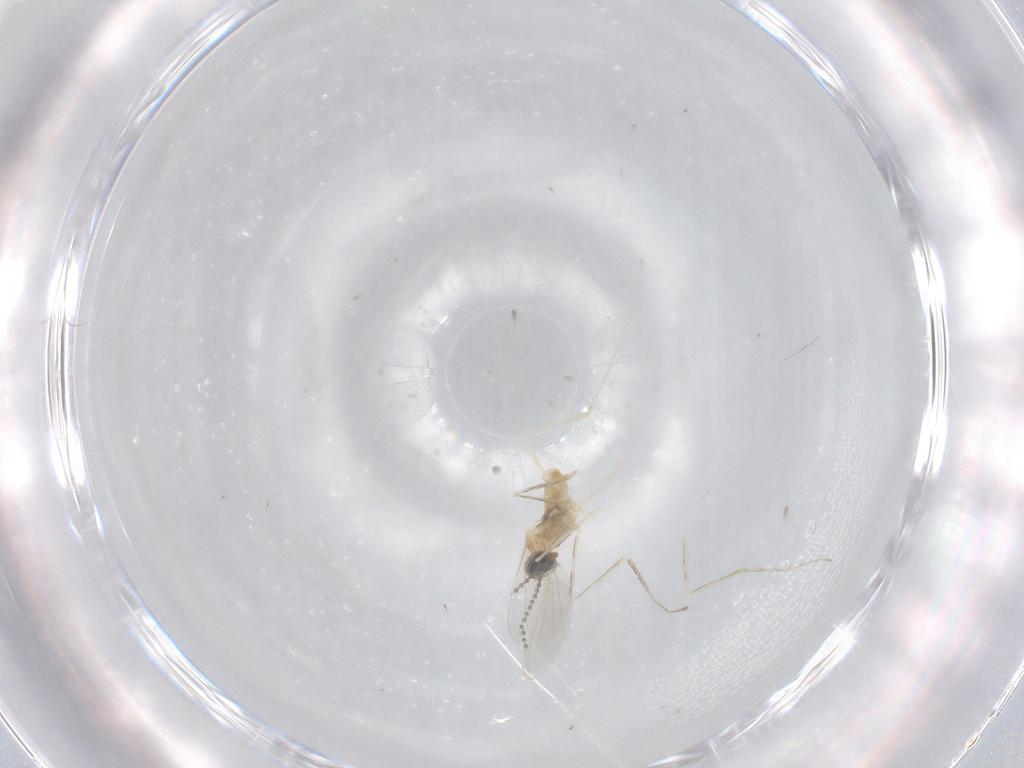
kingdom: Animalia
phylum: Arthropoda
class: Insecta
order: Diptera
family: Cecidomyiidae
